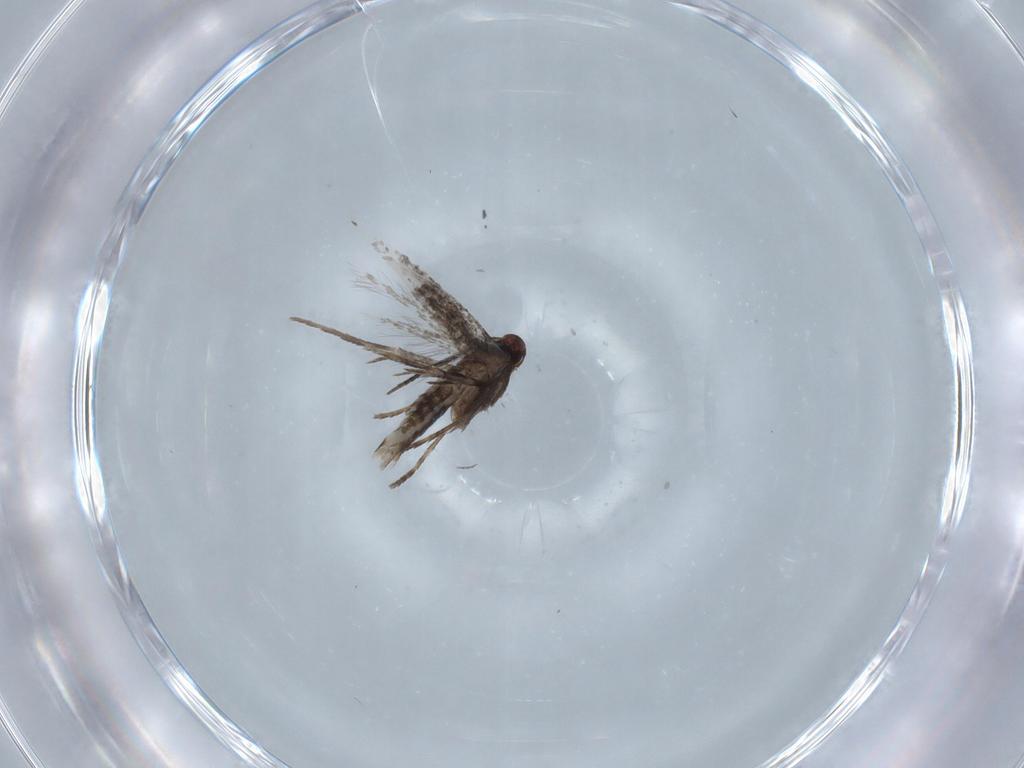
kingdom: Animalia
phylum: Arthropoda
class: Insecta
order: Lepidoptera
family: Gracillariidae
